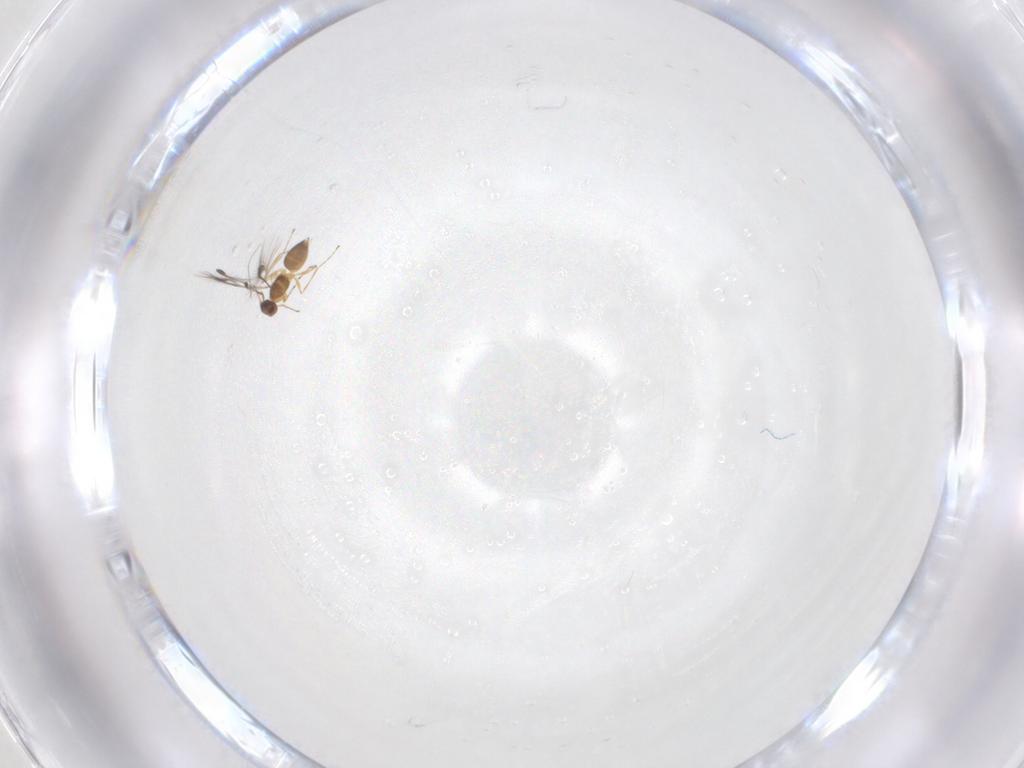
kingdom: Animalia
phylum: Arthropoda
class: Insecta
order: Hymenoptera
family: Mymaridae
